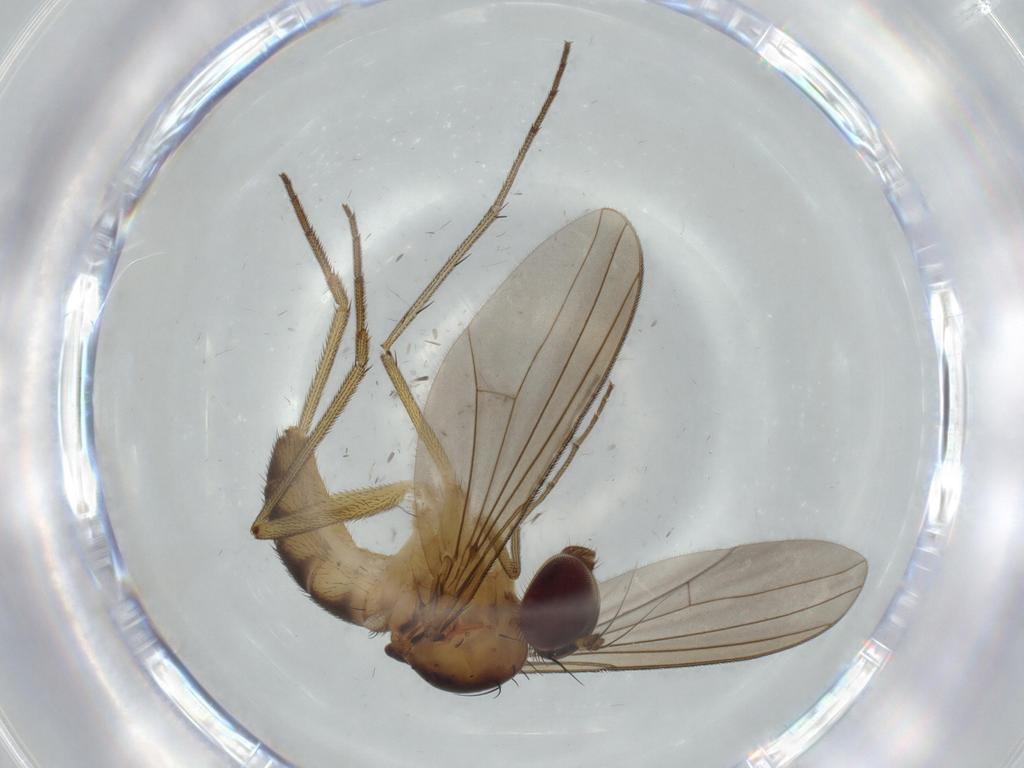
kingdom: Animalia
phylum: Arthropoda
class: Insecta
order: Diptera
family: Dolichopodidae
